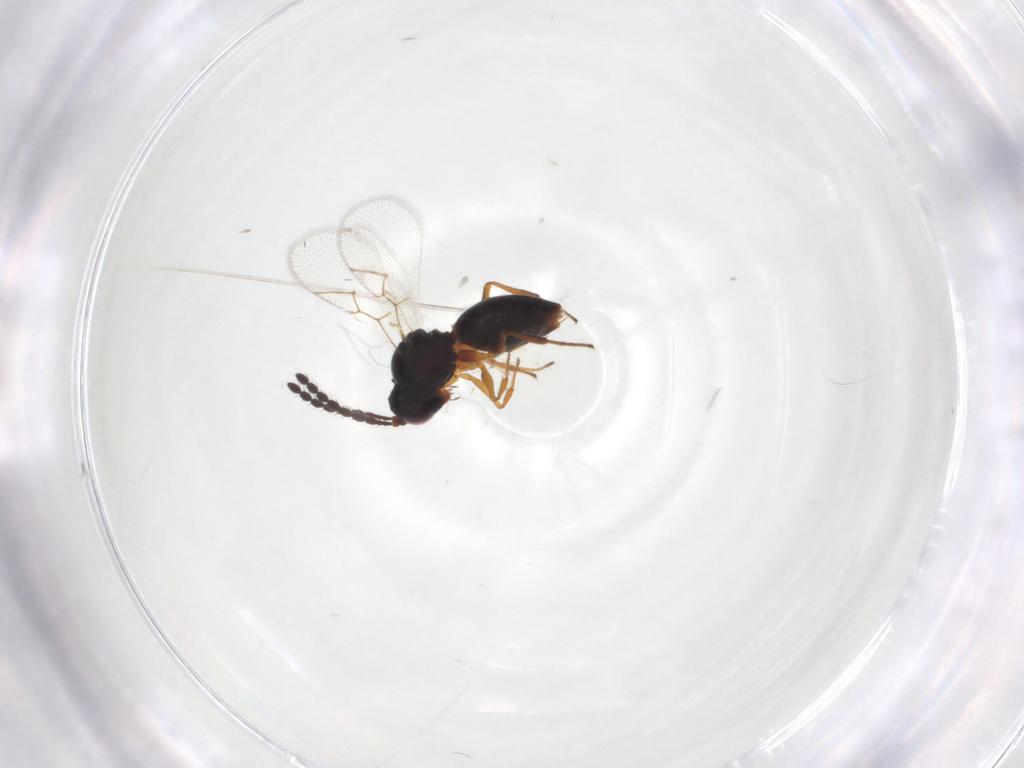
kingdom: Animalia
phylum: Arthropoda
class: Insecta
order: Hymenoptera
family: Figitidae
